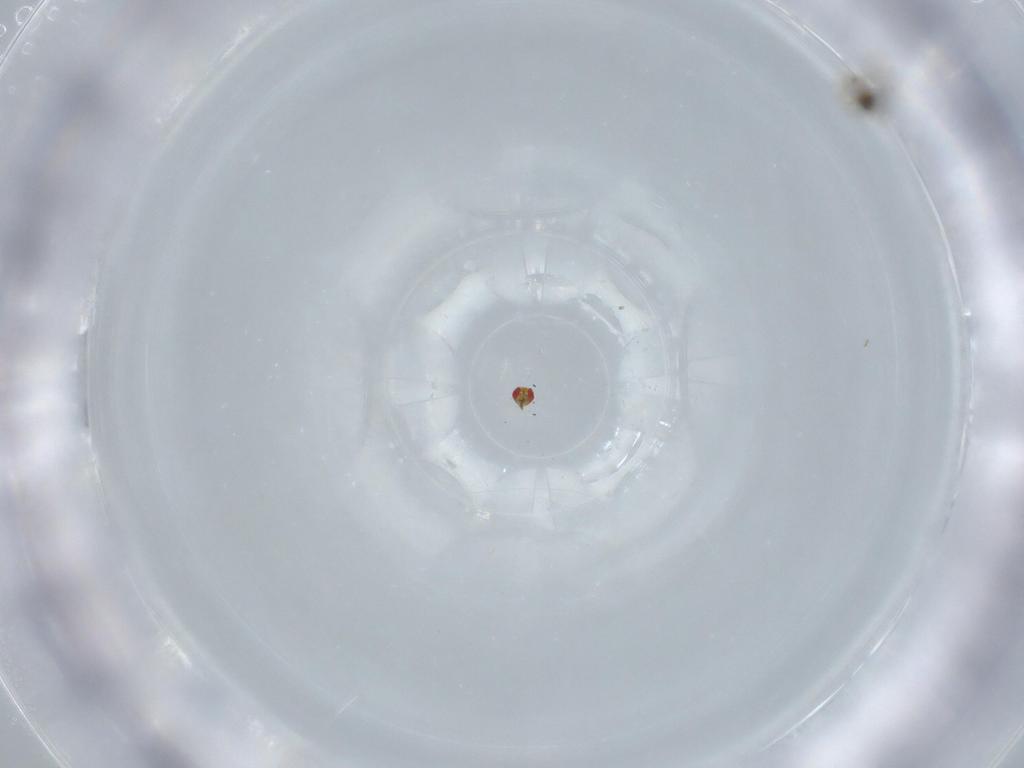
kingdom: Animalia
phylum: Arthropoda
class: Insecta
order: Hymenoptera
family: Trichogrammatidae
